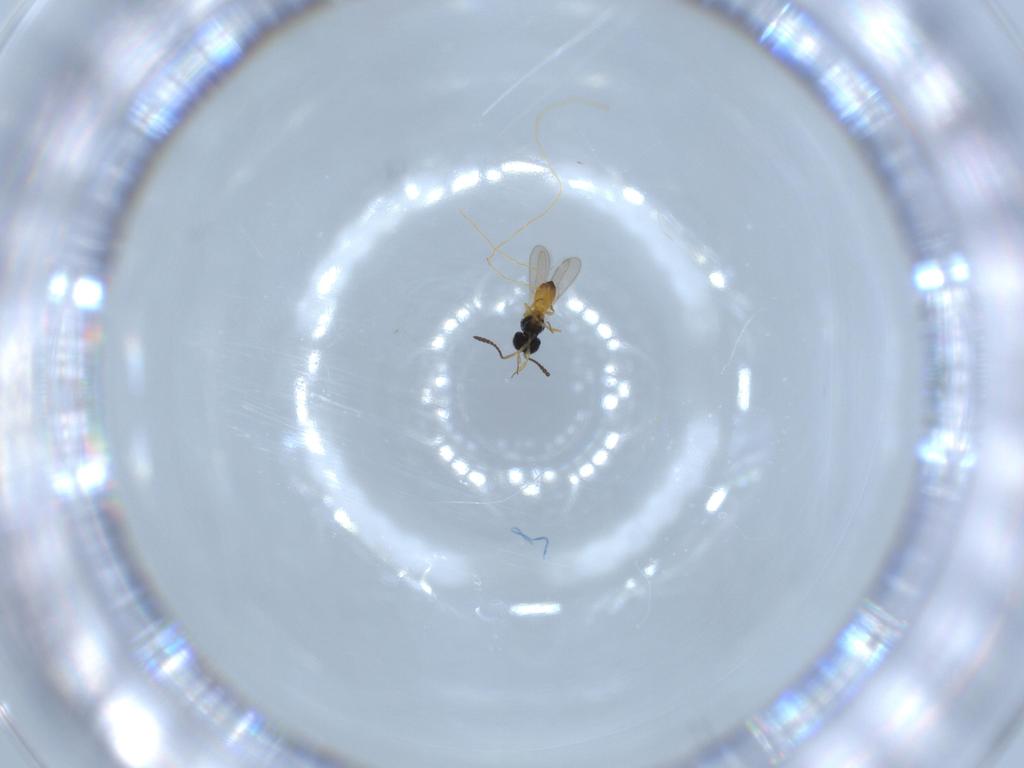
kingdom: Animalia
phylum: Arthropoda
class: Insecta
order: Hymenoptera
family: Scelionidae
